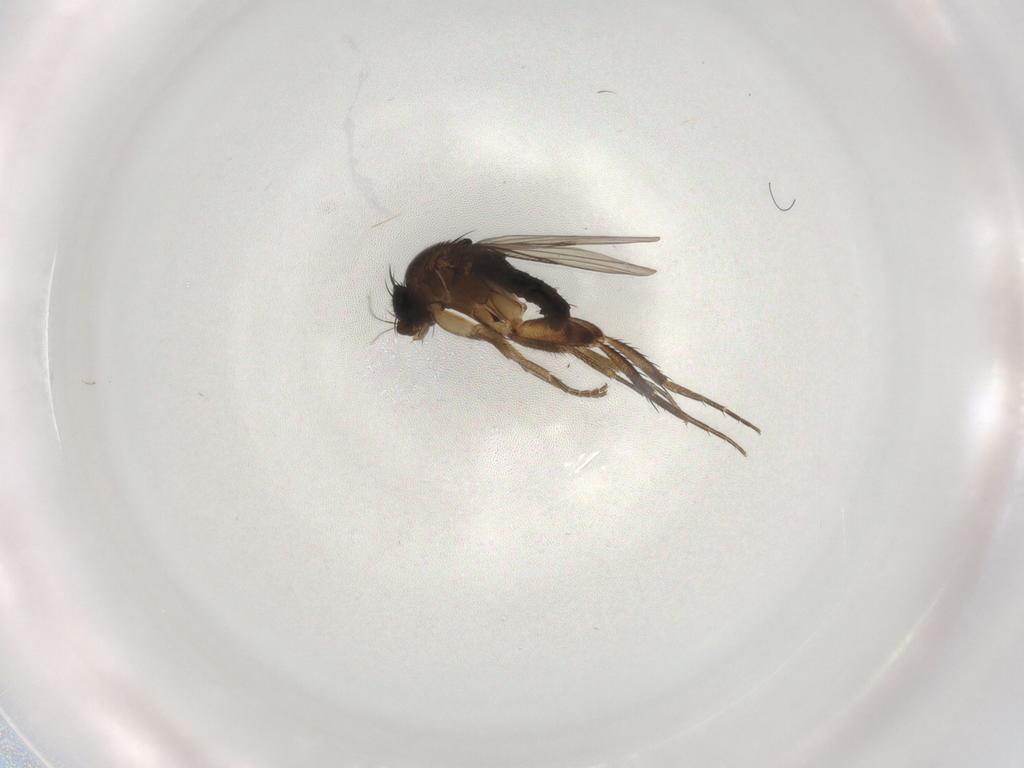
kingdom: Animalia
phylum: Arthropoda
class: Insecta
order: Diptera
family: Phoridae
